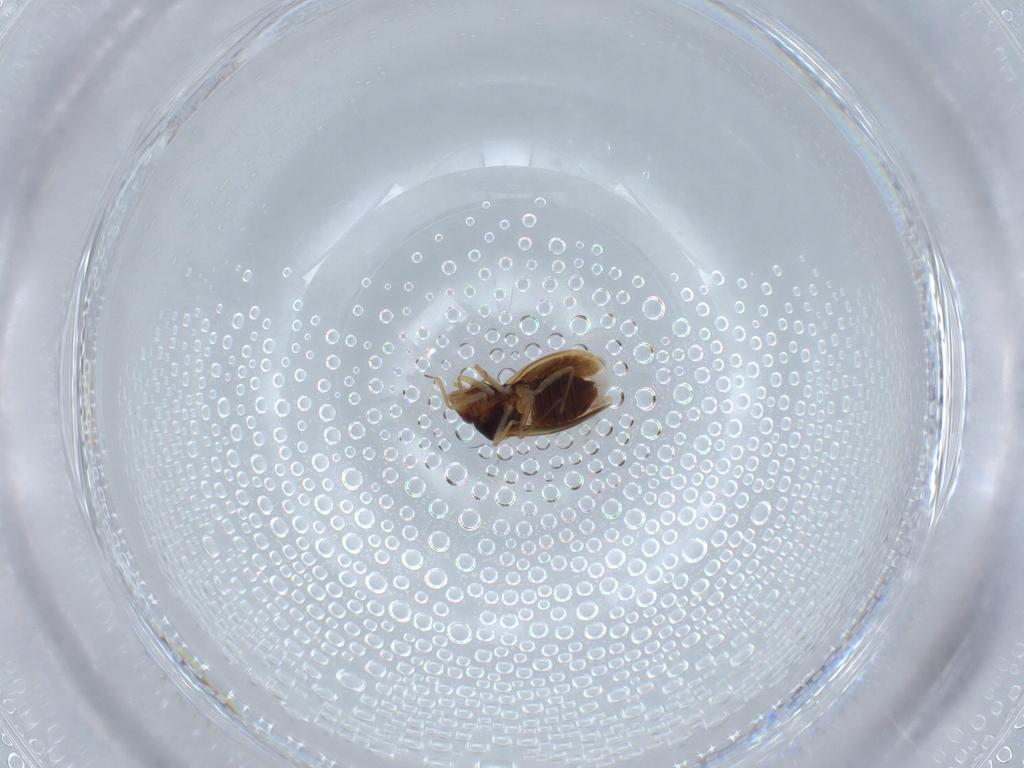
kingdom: Animalia
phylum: Arthropoda
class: Insecta
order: Hemiptera
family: Schizopteridae
